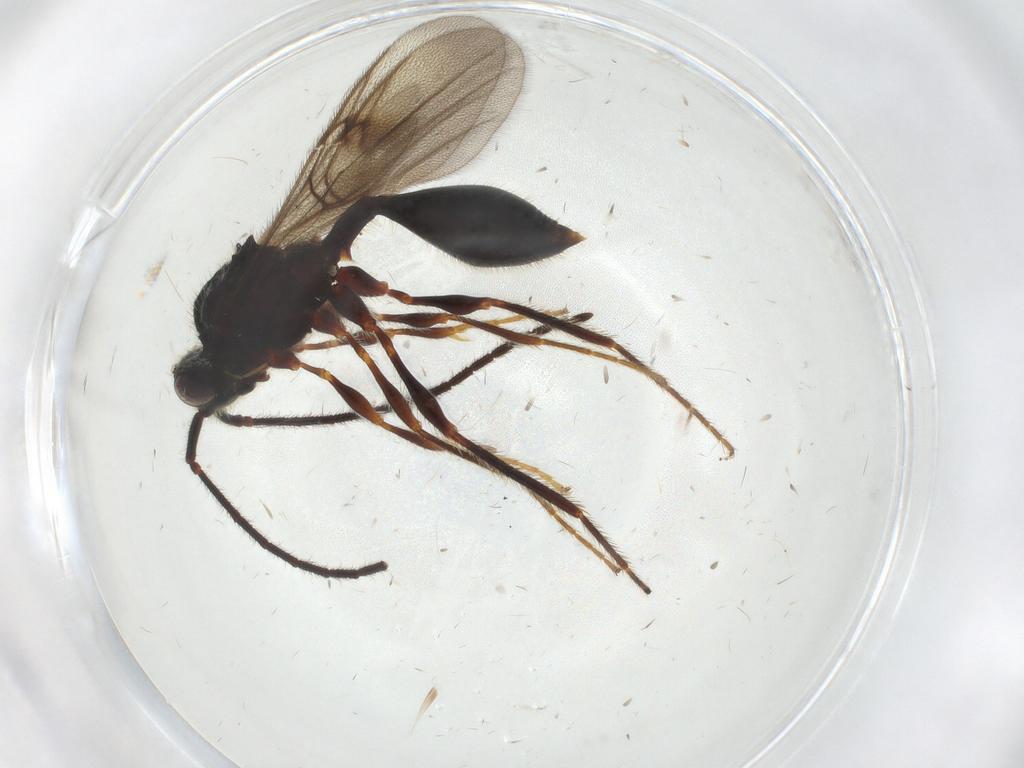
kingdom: Animalia
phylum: Arthropoda
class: Insecta
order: Hymenoptera
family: Diapriidae
